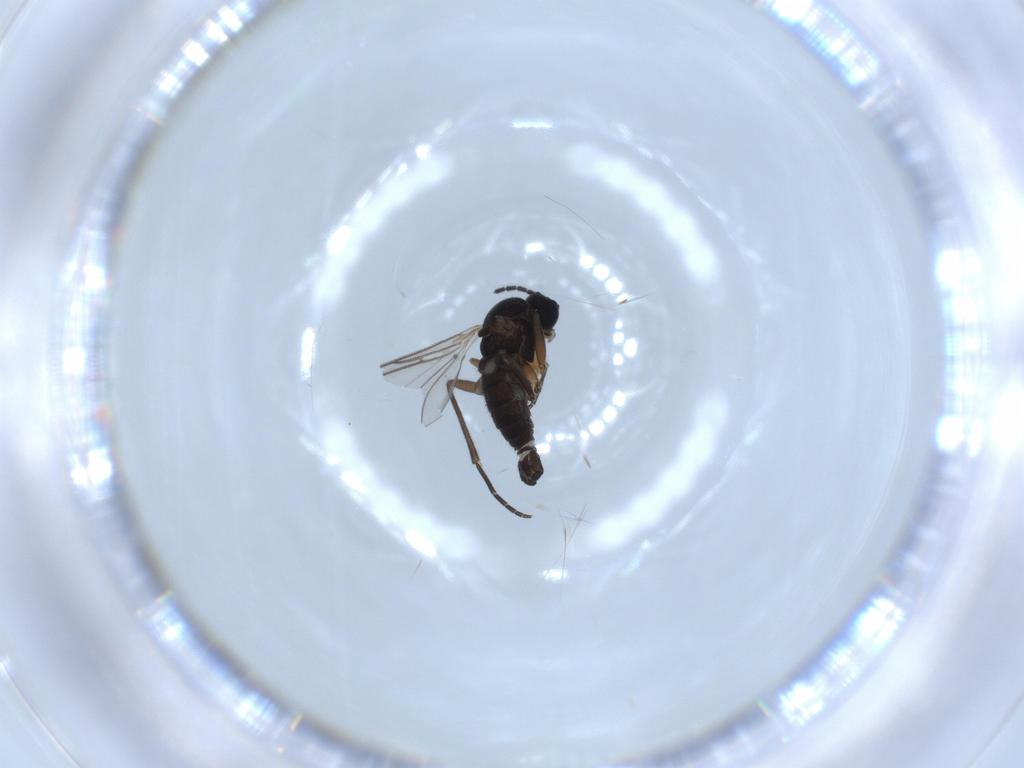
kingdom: Animalia
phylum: Arthropoda
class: Insecta
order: Diptera
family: Sciaridae
